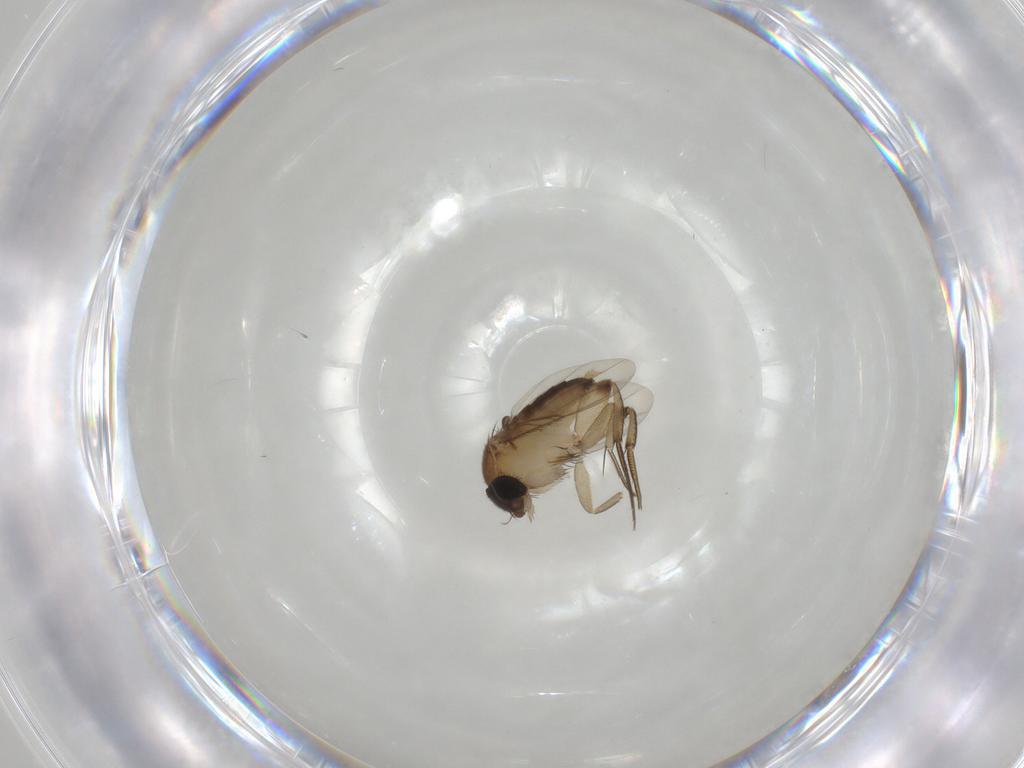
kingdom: Animalia
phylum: Arthropoda
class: Insecta
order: Diptera
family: Phoridae
